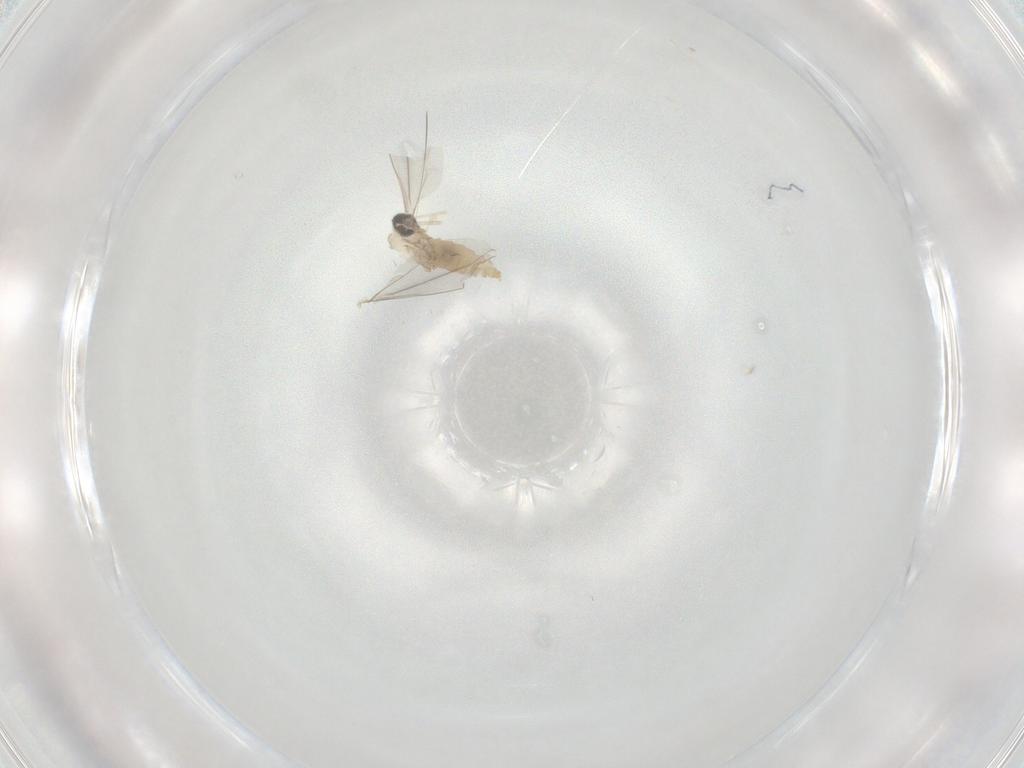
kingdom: Animalia
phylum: Arthropoda
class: Insecta
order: Diptera
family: Cecidomyiidae
